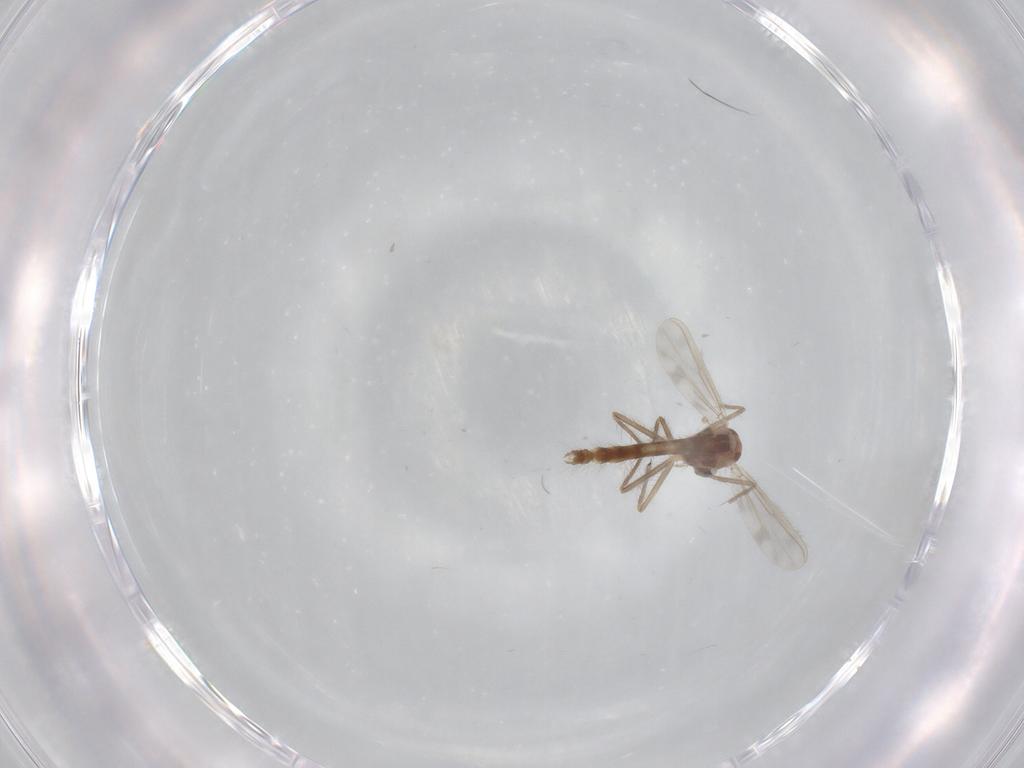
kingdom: Animalia
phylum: Arthropoda
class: Insecta
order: Diptera
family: Chironomidae
